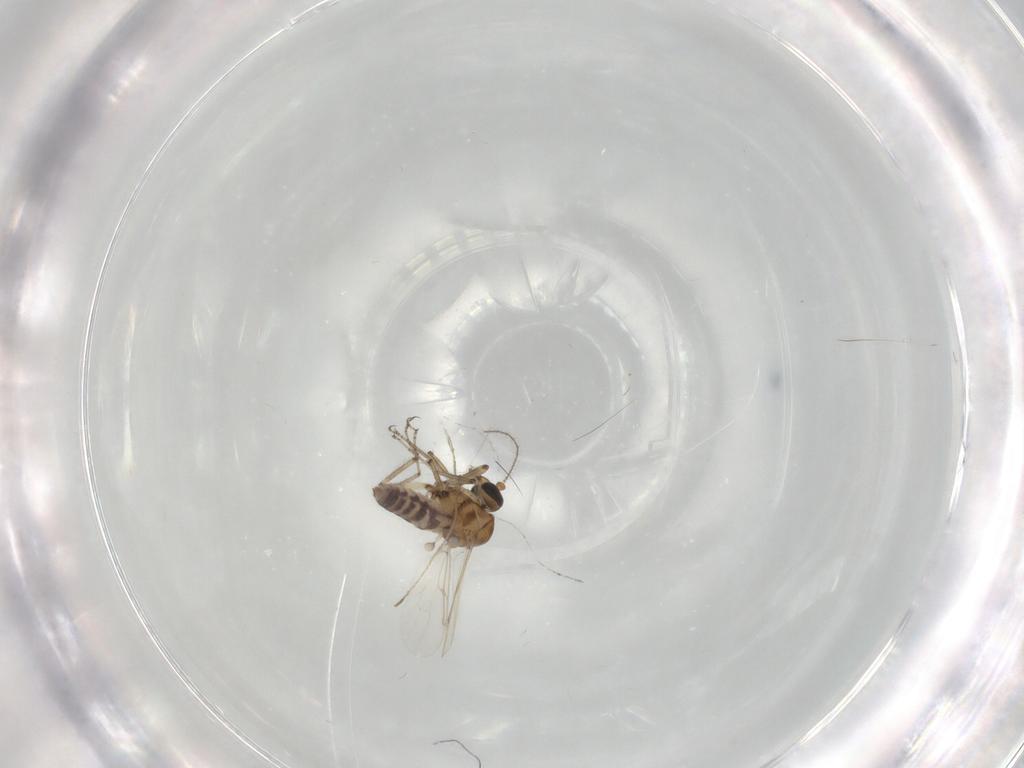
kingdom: Animalia
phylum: Arthropoda
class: Insecta
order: Diptera
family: Ceratopogonidae
